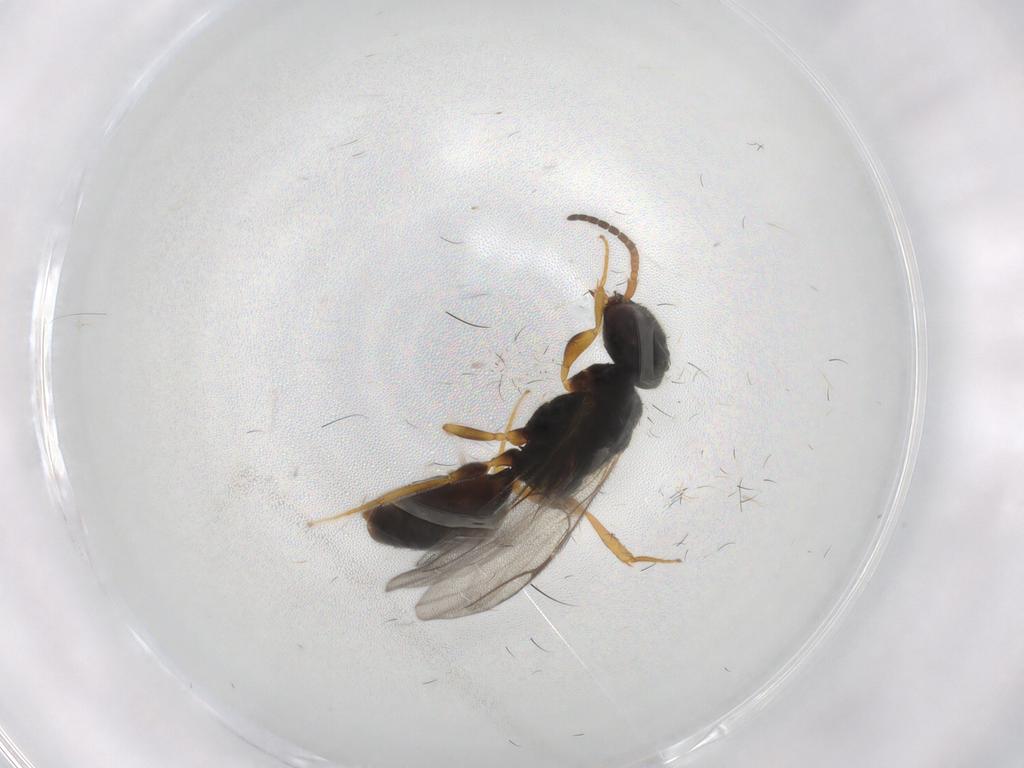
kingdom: Animalia
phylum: Arthropoda
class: Insecta
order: Hymenoptera
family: Bethylidae
